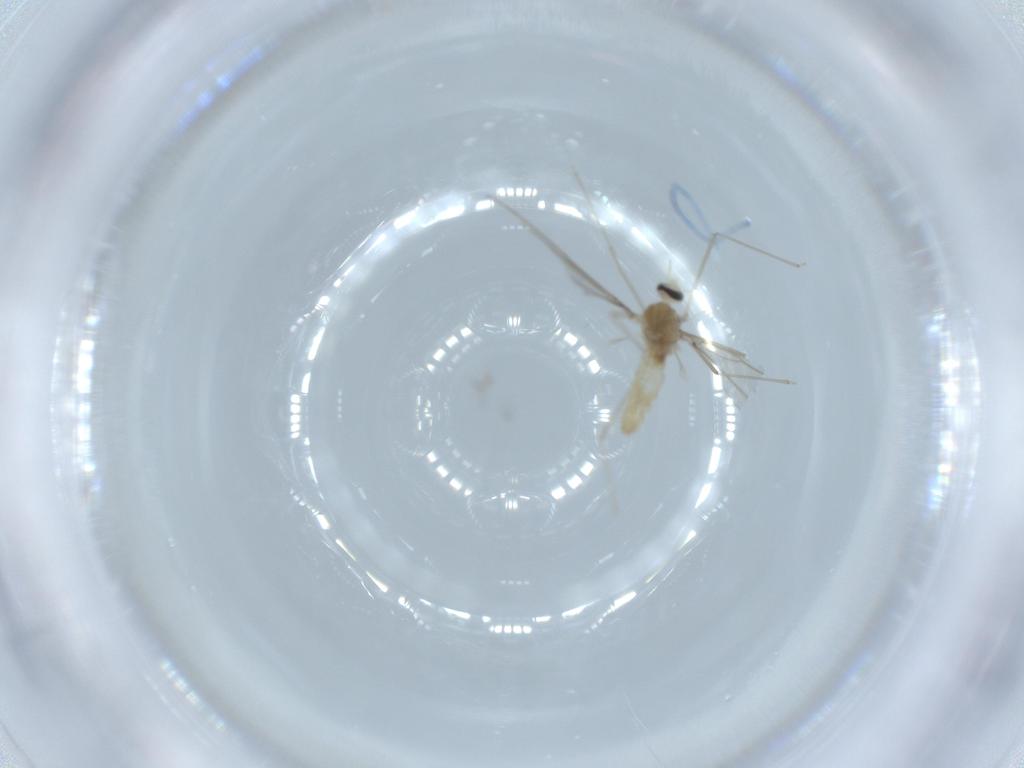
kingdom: Animalia
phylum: Arthropoda
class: Insecta
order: Diptera
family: Cecidomyiidae
